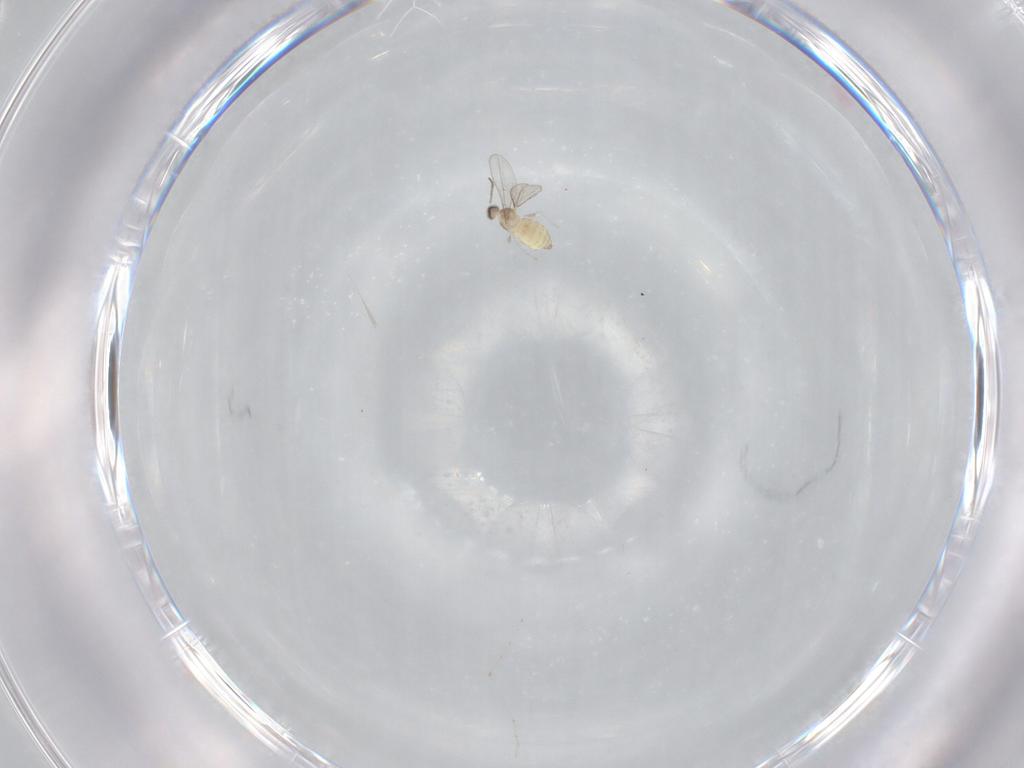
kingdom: Animalia
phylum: Arthropoda
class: Insecta
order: Diptera
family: Cecidomyiidae
